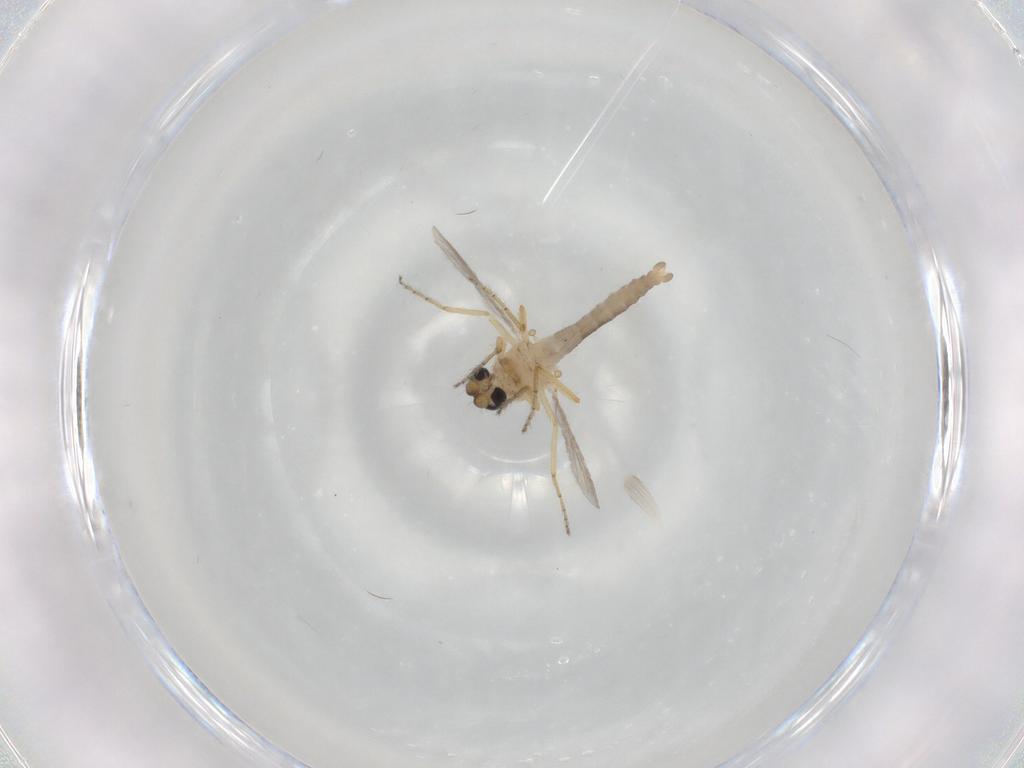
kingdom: Animalia
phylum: Arthropoda
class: Insecta
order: Diptera
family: Ceratopogonidae
